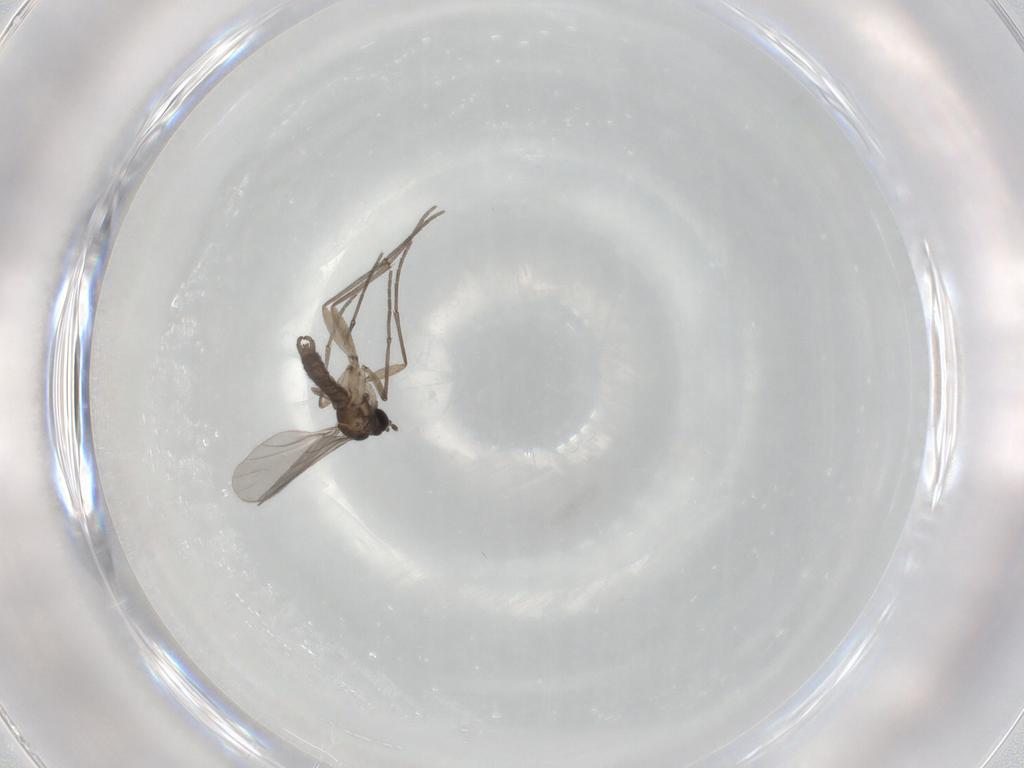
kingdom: Animalia
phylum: Arthropoda
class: Insecta
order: Diptera
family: Sciaridae
